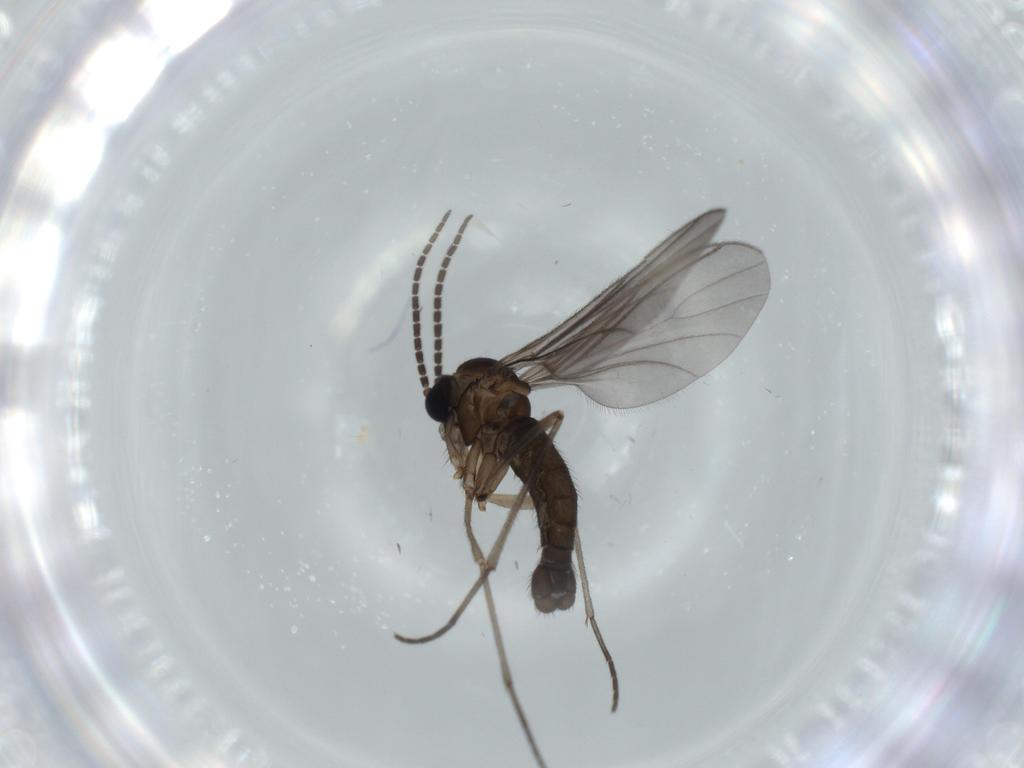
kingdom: Animalia
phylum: Arthropoda
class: Insecta
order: Diptera
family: Sciaridae
